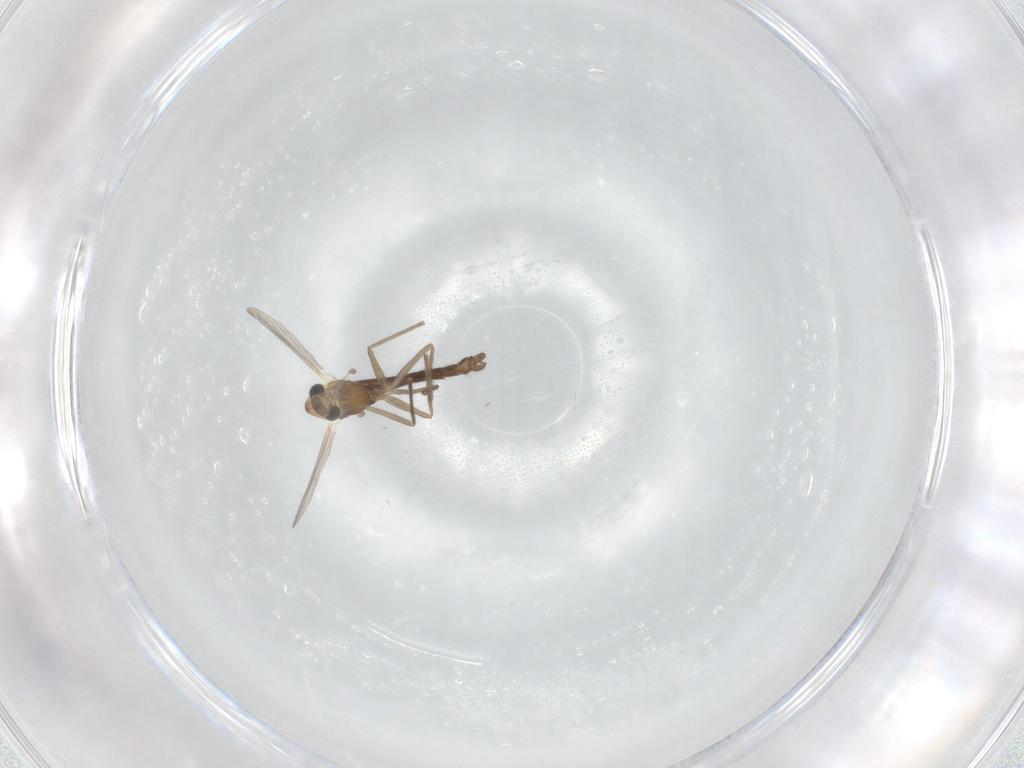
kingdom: Animalia
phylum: Arthropoda
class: Insecta
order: Diptera
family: Chironomidae
